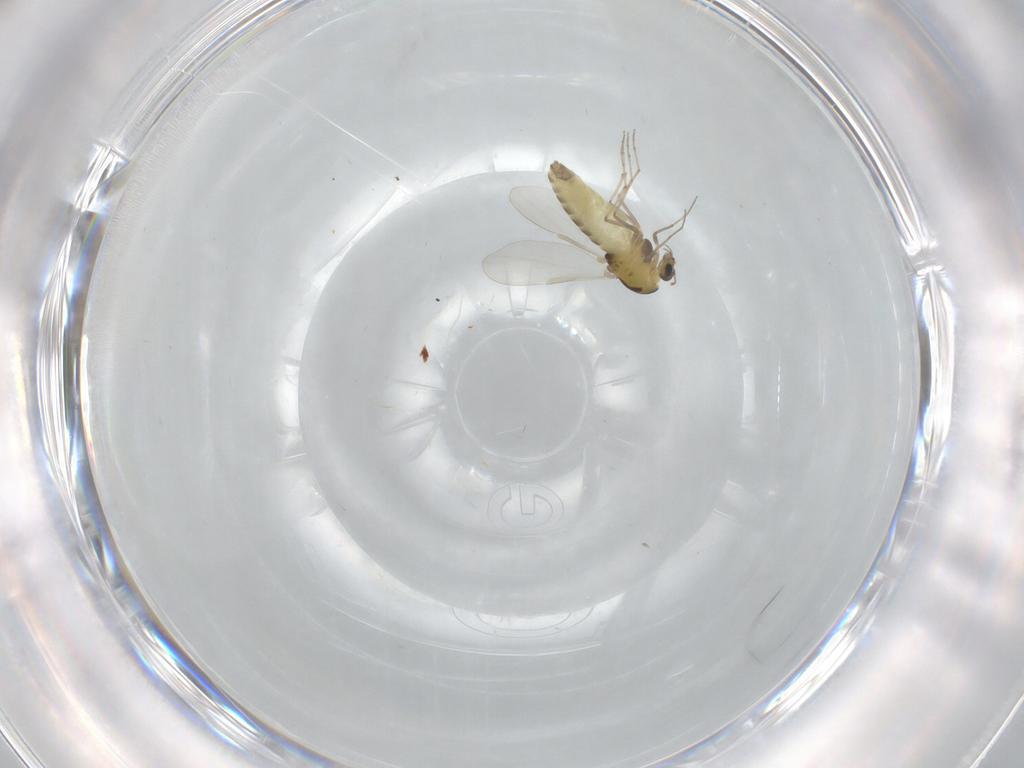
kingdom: Animalia
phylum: Arthropoda
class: Insecta
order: Diptera
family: Chironomidae
